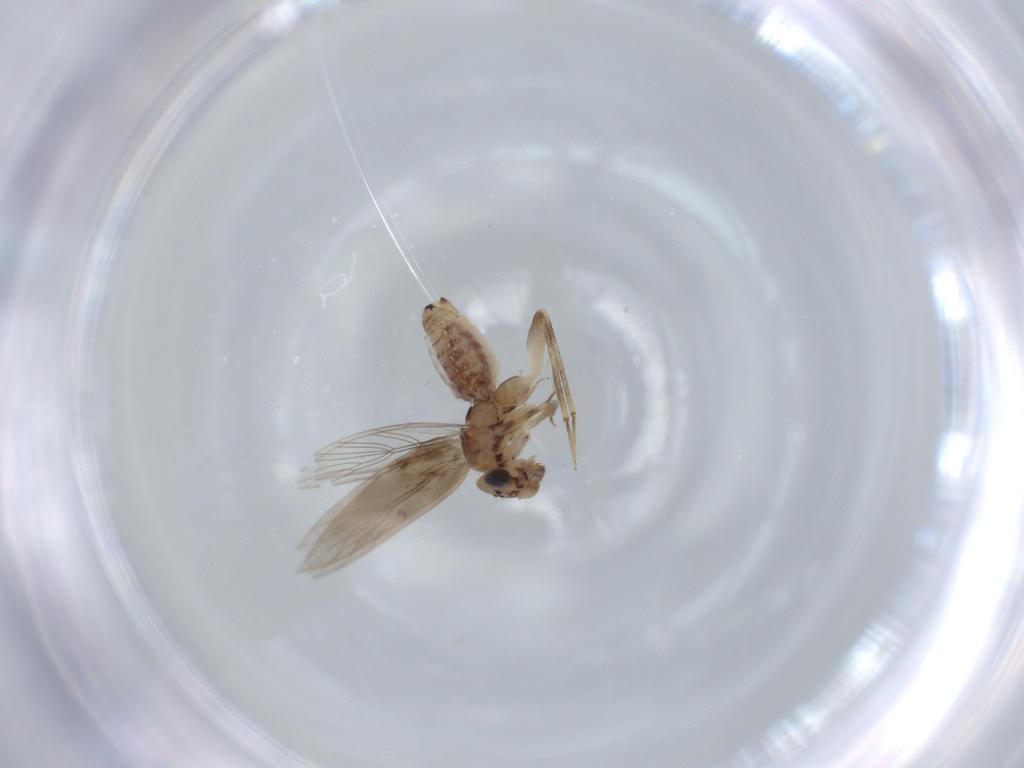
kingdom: Animalia
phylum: Arthropoda
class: Insecta
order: Psocodea
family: Lepidopsocidae
